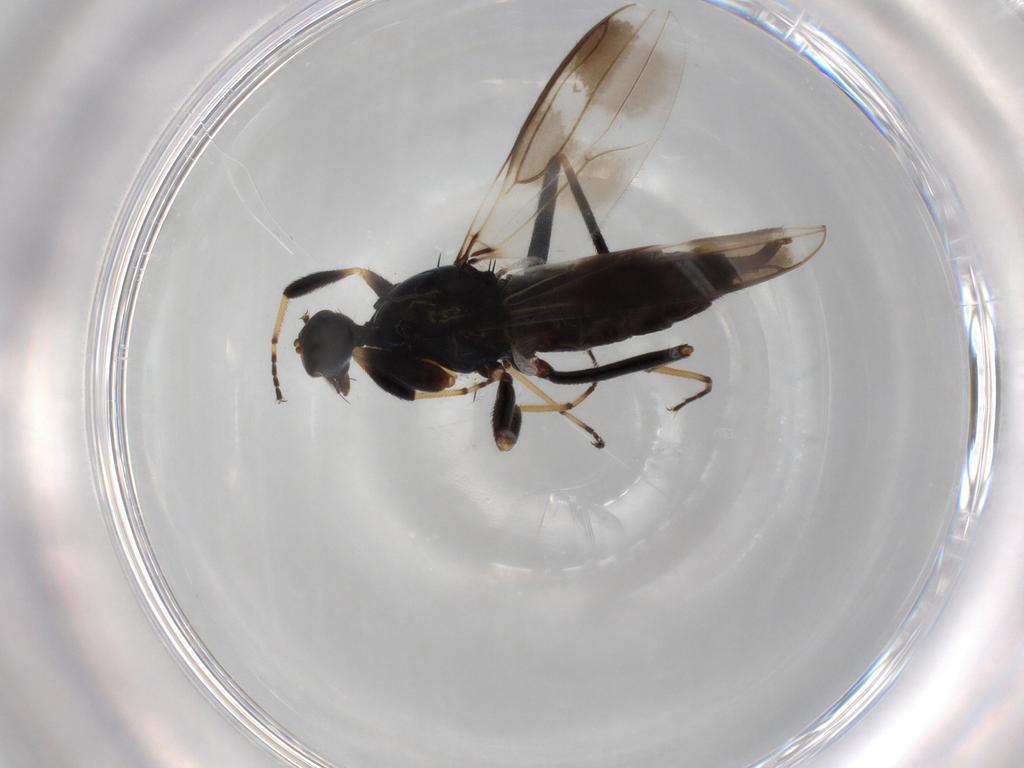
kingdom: Animalia
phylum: Arthropoda
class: Insecta
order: Diptera
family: Hybotidae
